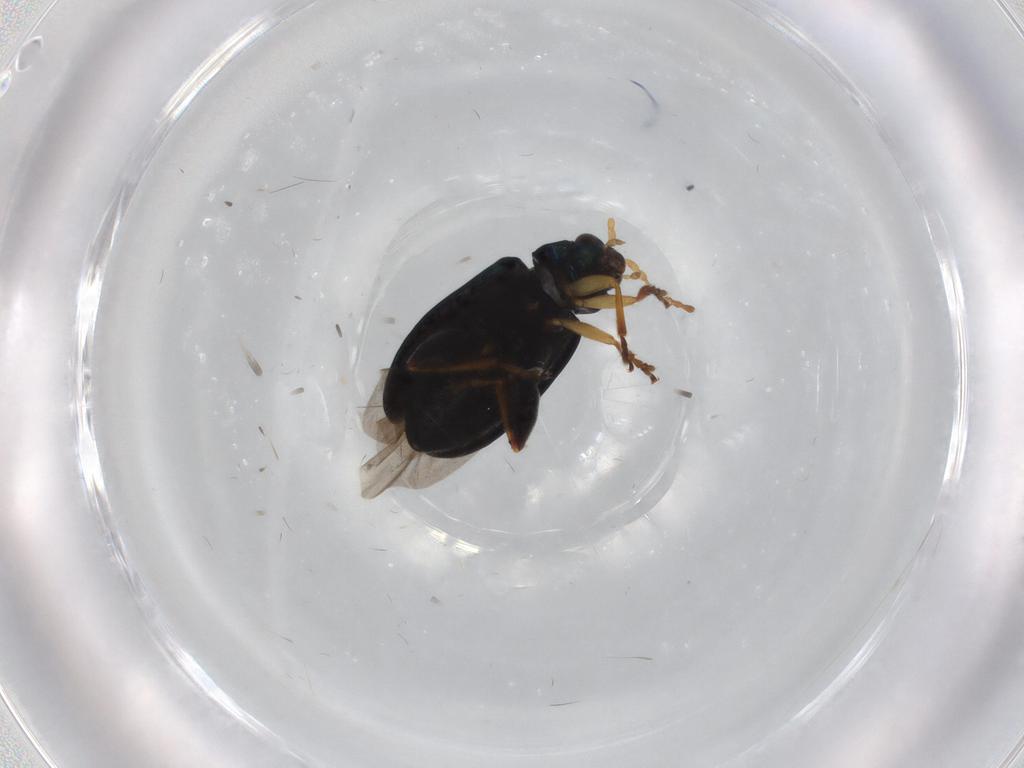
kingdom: Animalia
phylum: Arthropoda
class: Insecta
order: Coleoptera
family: Chrysomelidae
